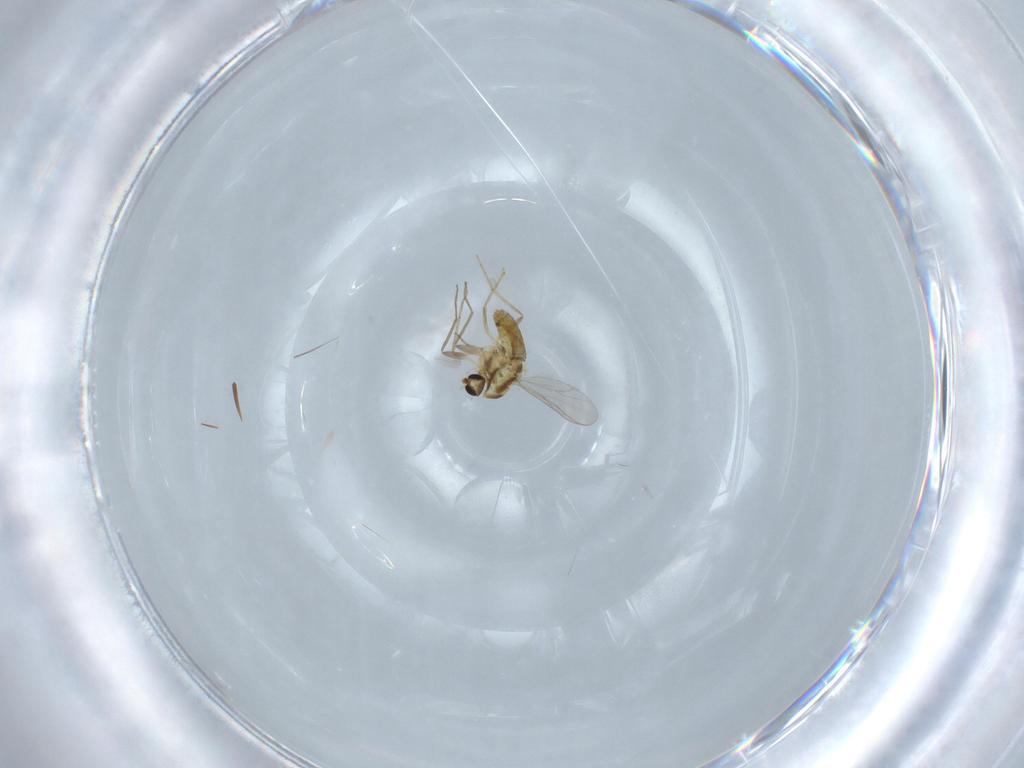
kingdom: Animalia
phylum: Arthropoda
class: Insecta
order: Diptera
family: Chironomidae
